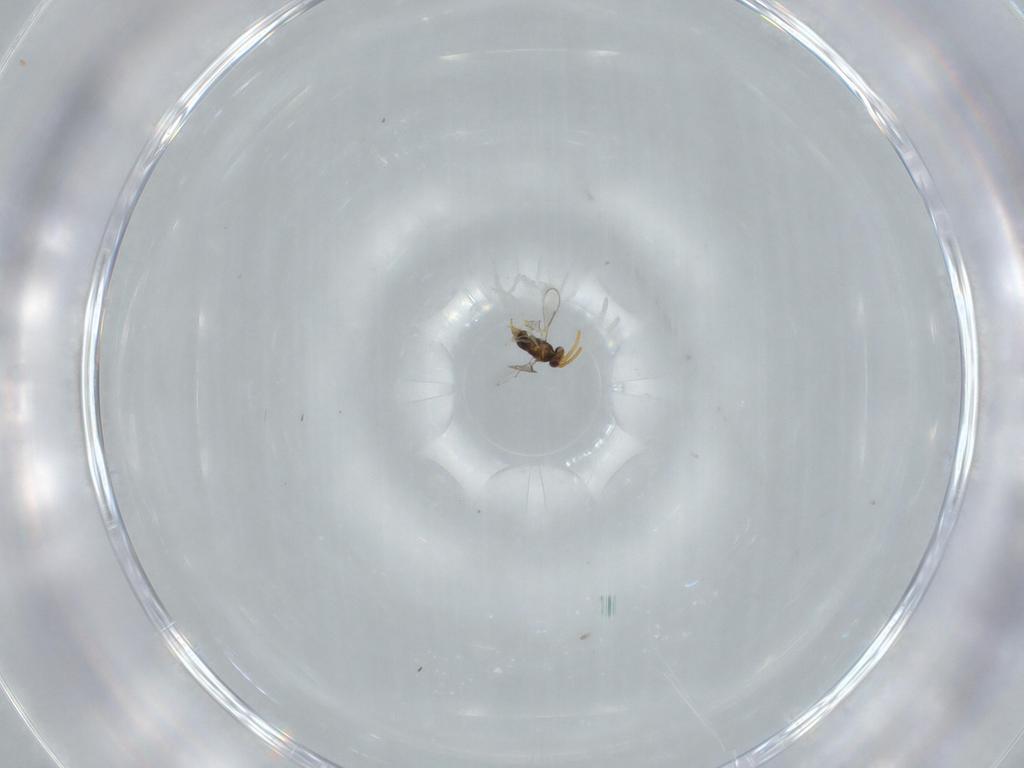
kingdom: Animalia
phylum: Arthropoda
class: Insecta
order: Hymenoptera
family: Aphelinidae
